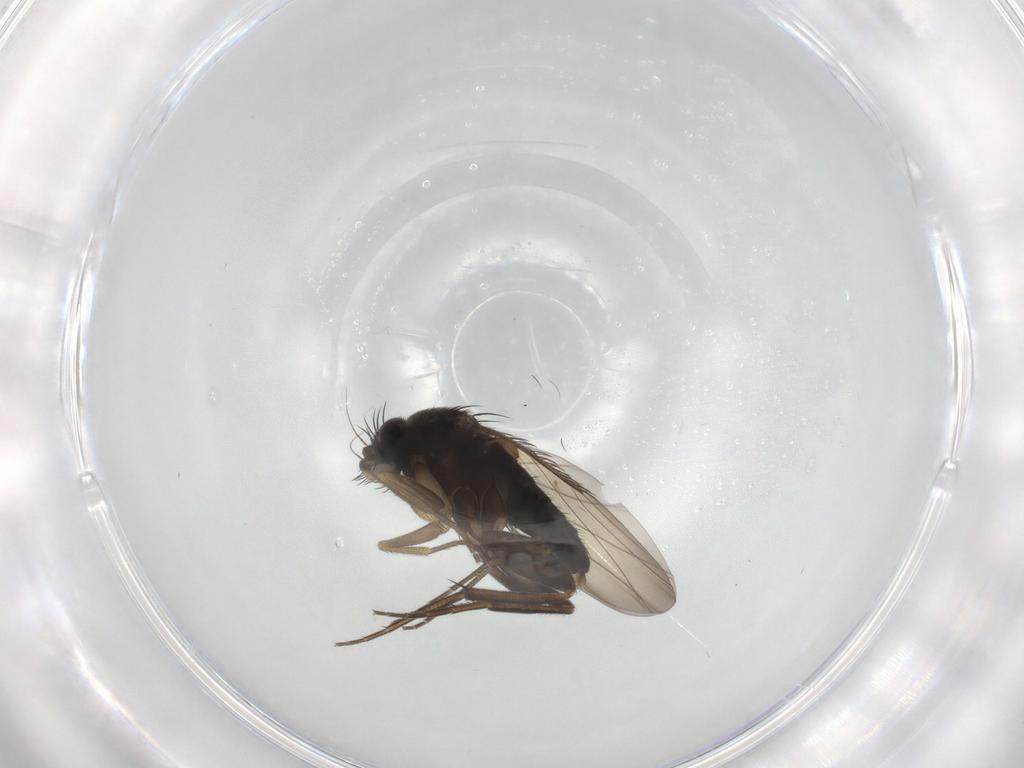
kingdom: Animalia
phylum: Arthropoda
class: Insecta
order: Diptera
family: Phoridae
